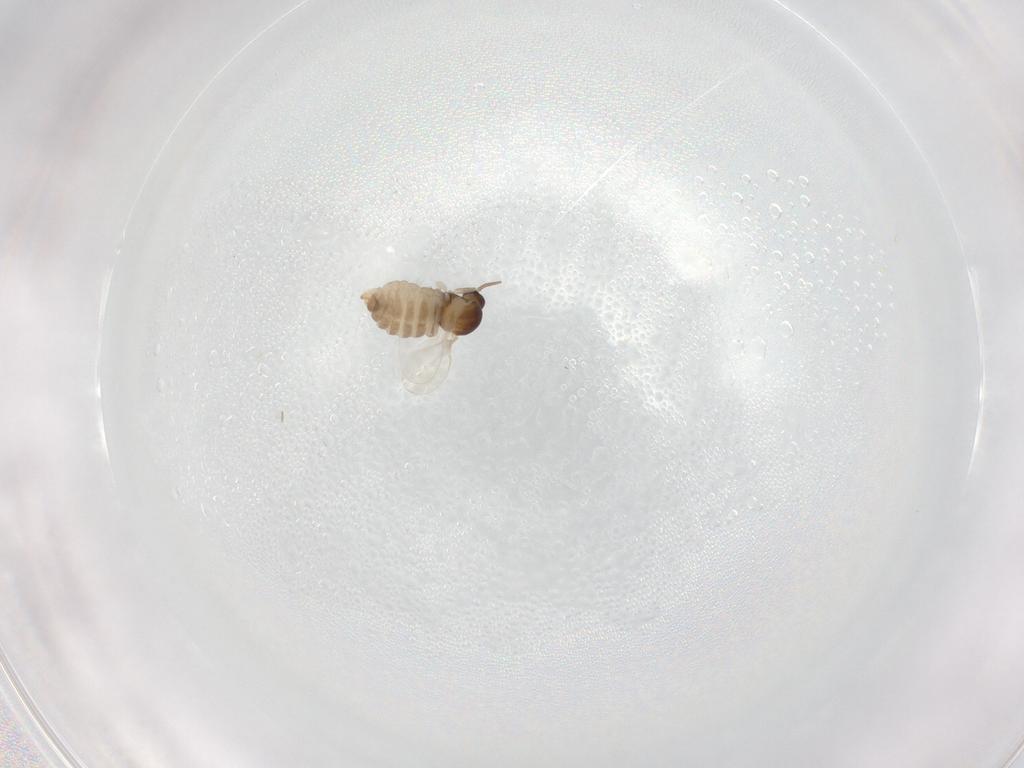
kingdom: Animalia
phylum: Arthropoda
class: Insecta
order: Diptera
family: Cecidomyiidae
